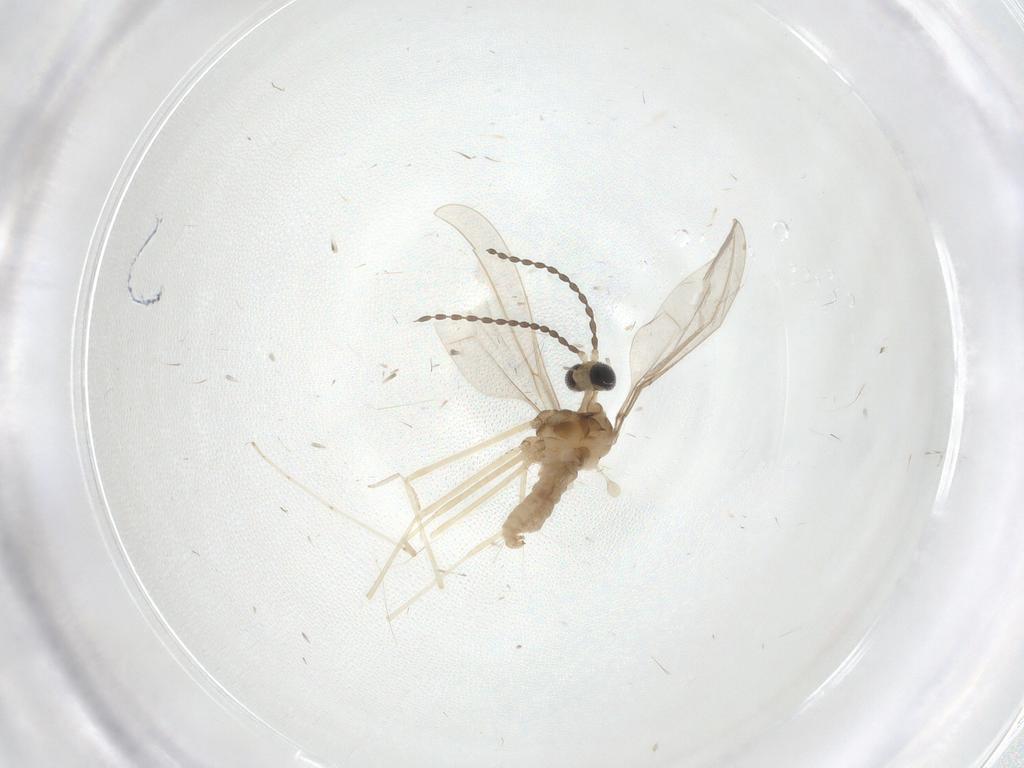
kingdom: Animalia
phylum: Arthropoda
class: Insecta
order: Diptera
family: Cecidomyiidae
